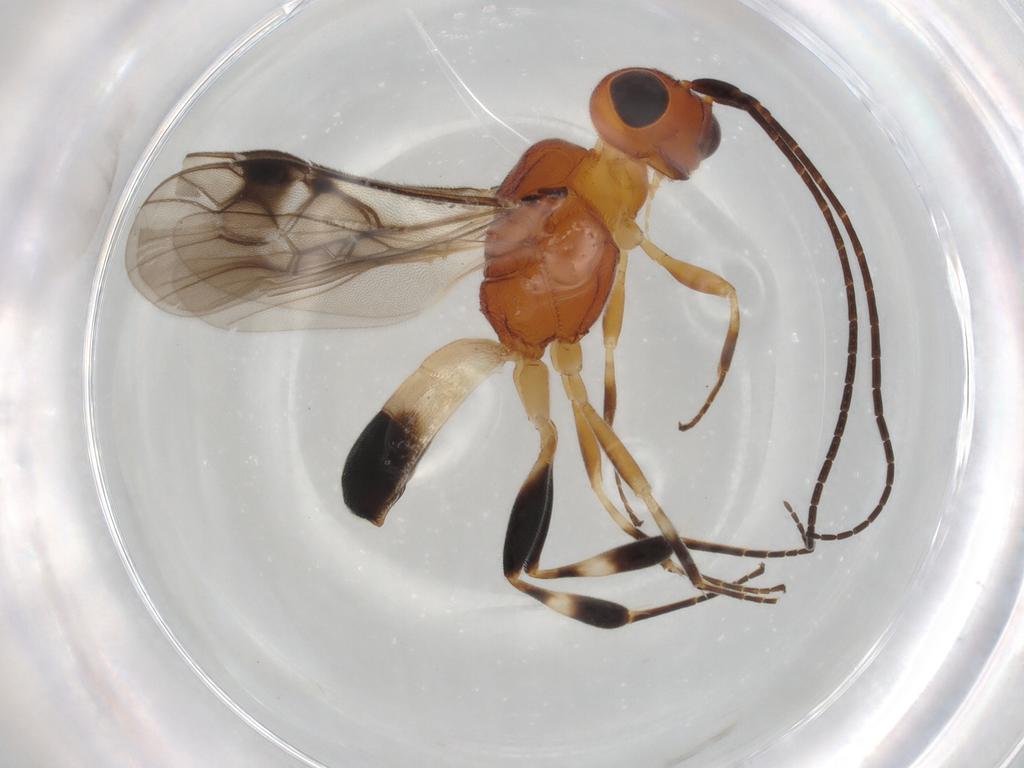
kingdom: Animalia
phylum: Arthropoda
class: Insecta
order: Hymenoptera
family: Braconidae
